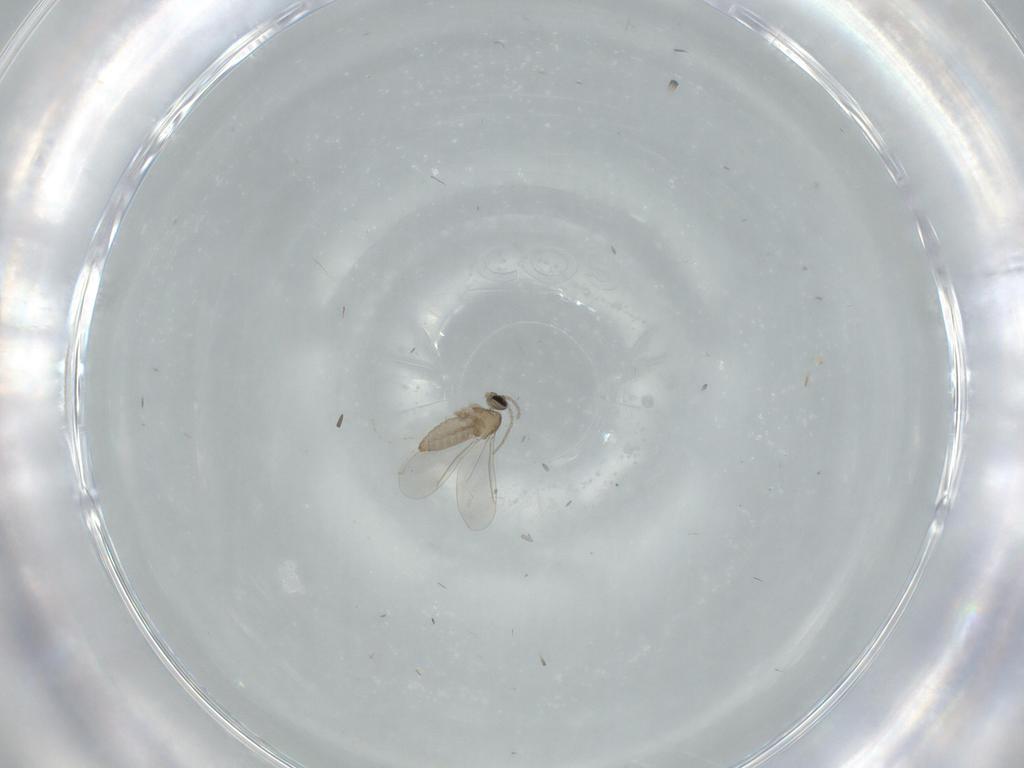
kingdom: Animalia
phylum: Arthropoda
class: Insecta
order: Diptera
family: Cecidomyiidae
